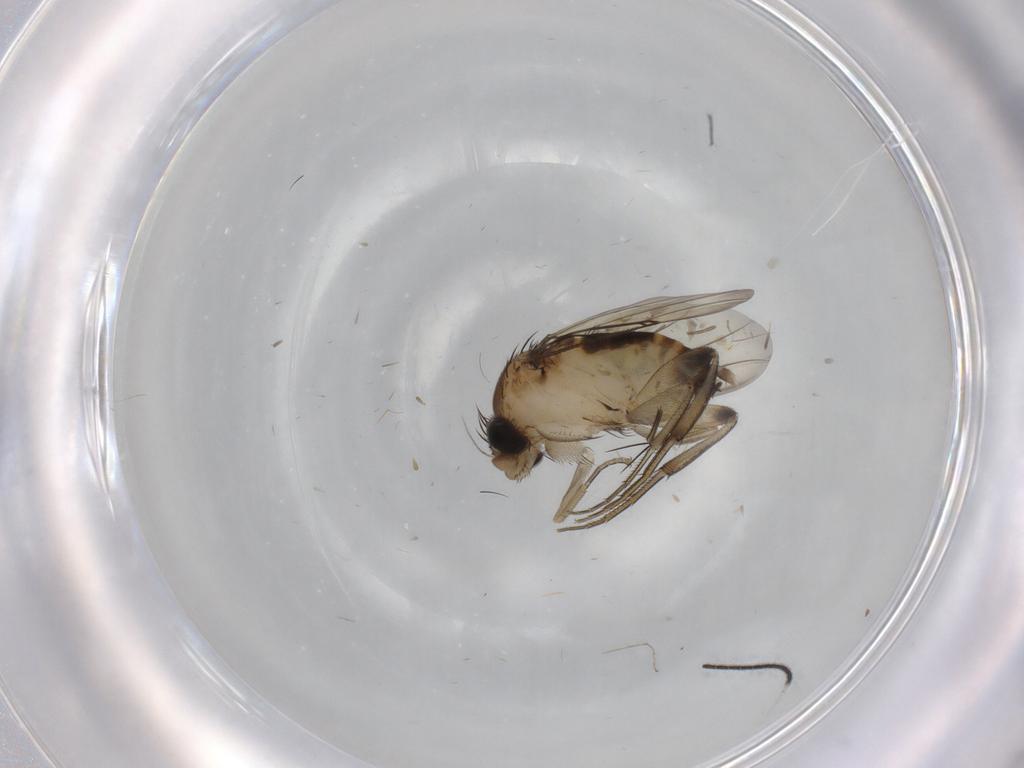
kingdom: Animalia
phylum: Arthropoda
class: Insecta
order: Diptera
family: Phoridae
